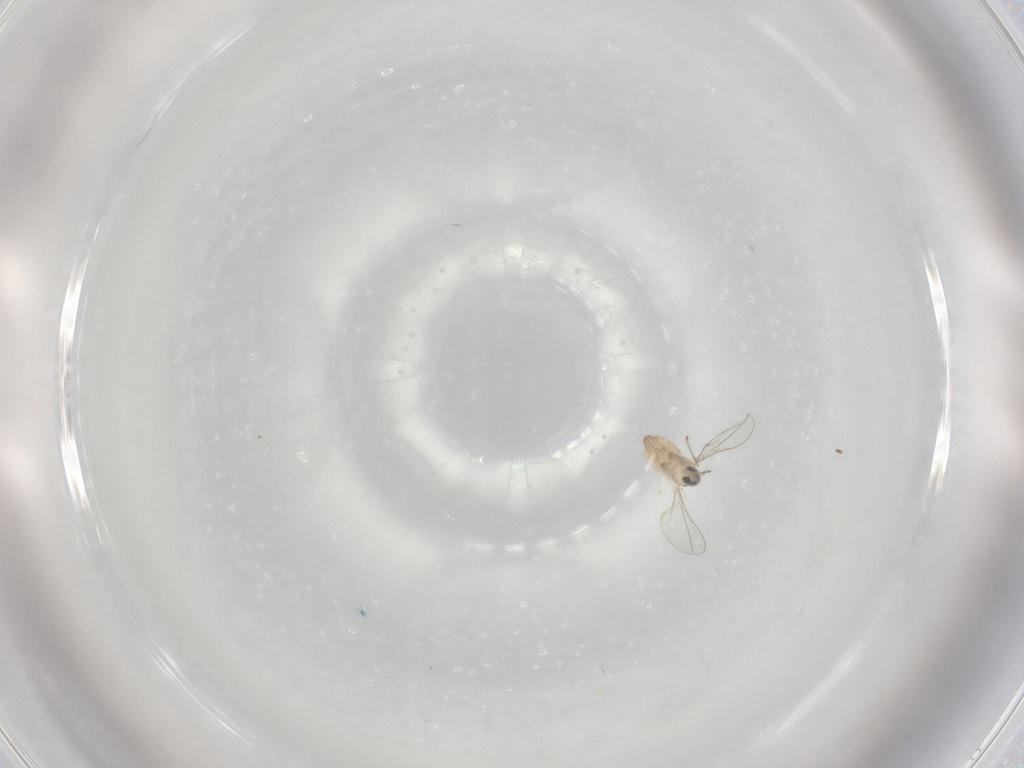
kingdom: Animalia
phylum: Arthropoda
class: Insecta
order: Diptera
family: Cecidomyiidae
